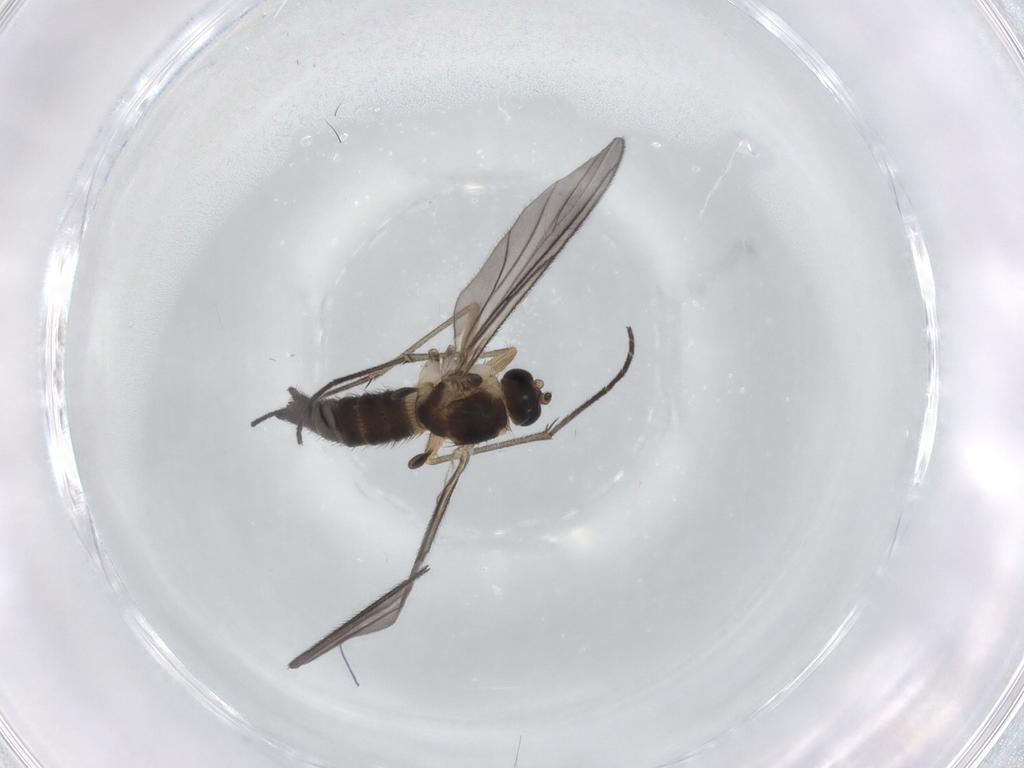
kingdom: Animalia
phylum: Arthropoda
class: Insecta
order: Diptera
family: Sciaridae
